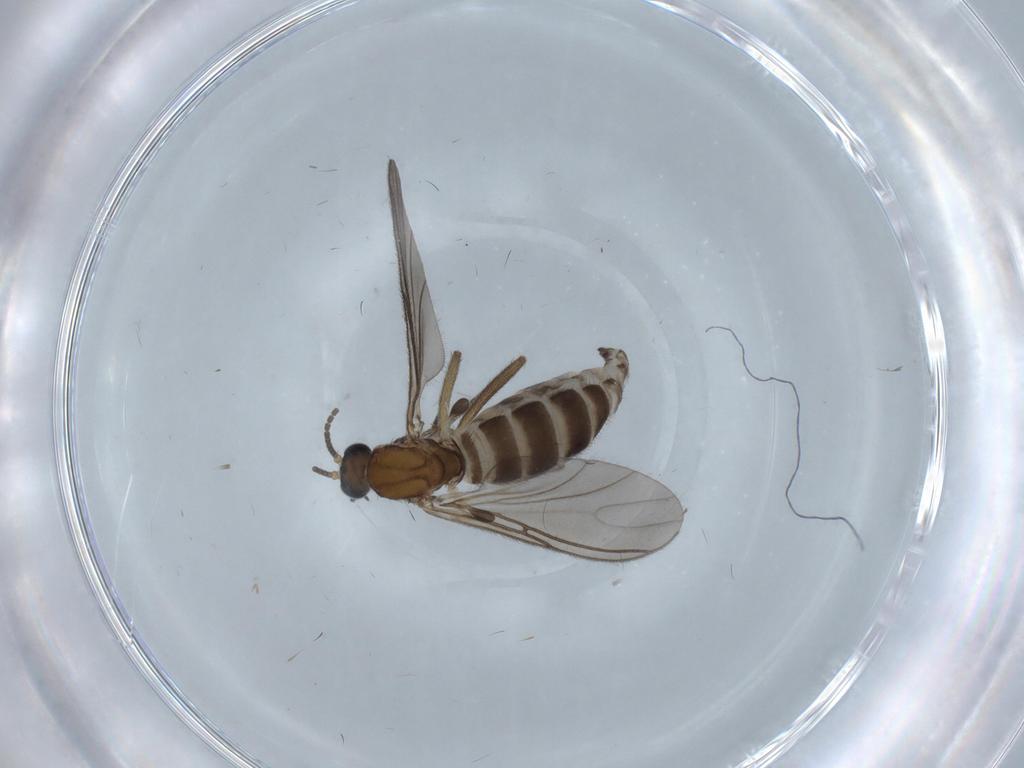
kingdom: Animalia
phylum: Arthropoda
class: Insecta
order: Diptera
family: Sciaridae
